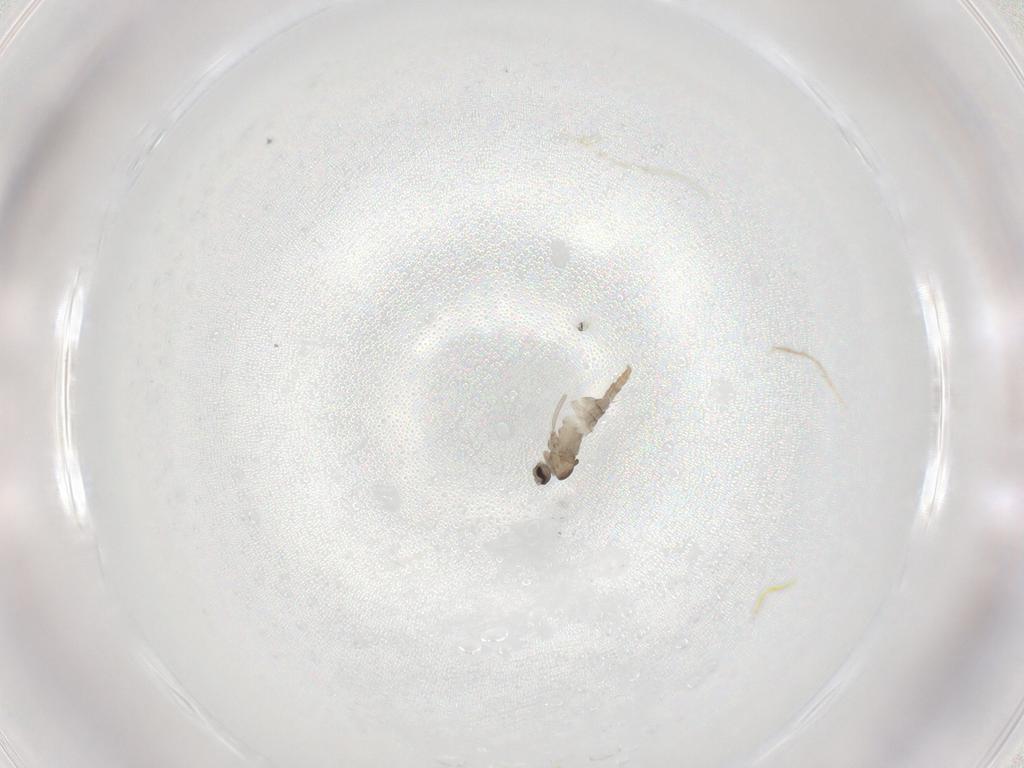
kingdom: Animalia
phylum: Arthropoda
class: Insecta
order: Diptera
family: Cecidomyiidae
